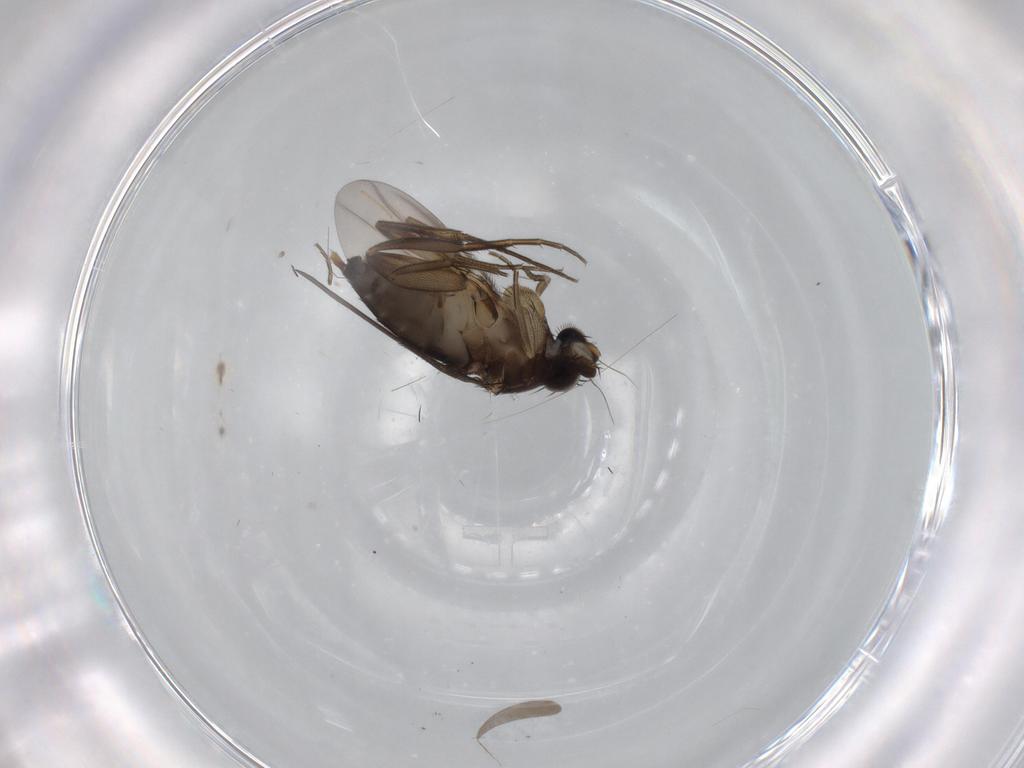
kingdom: Animalia
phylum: Arthropoda
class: Insecta
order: Diptera
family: Phoridae
